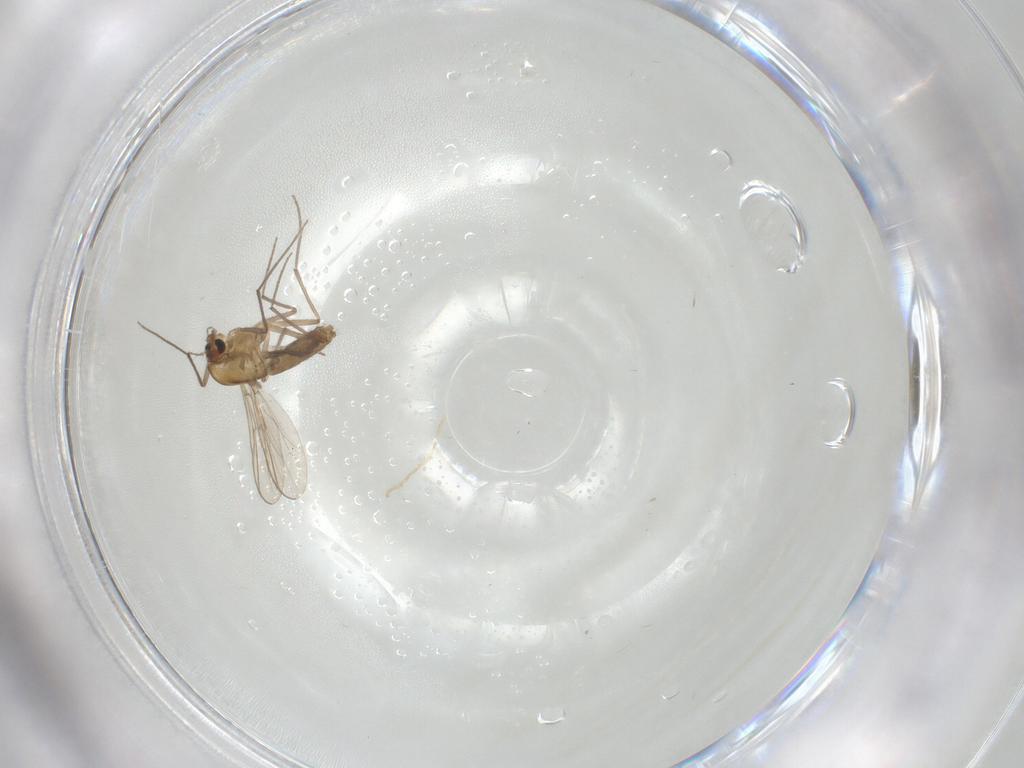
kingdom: Animalia
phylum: Arthropoda
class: Insecta
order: Diptera
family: Chironomidae
